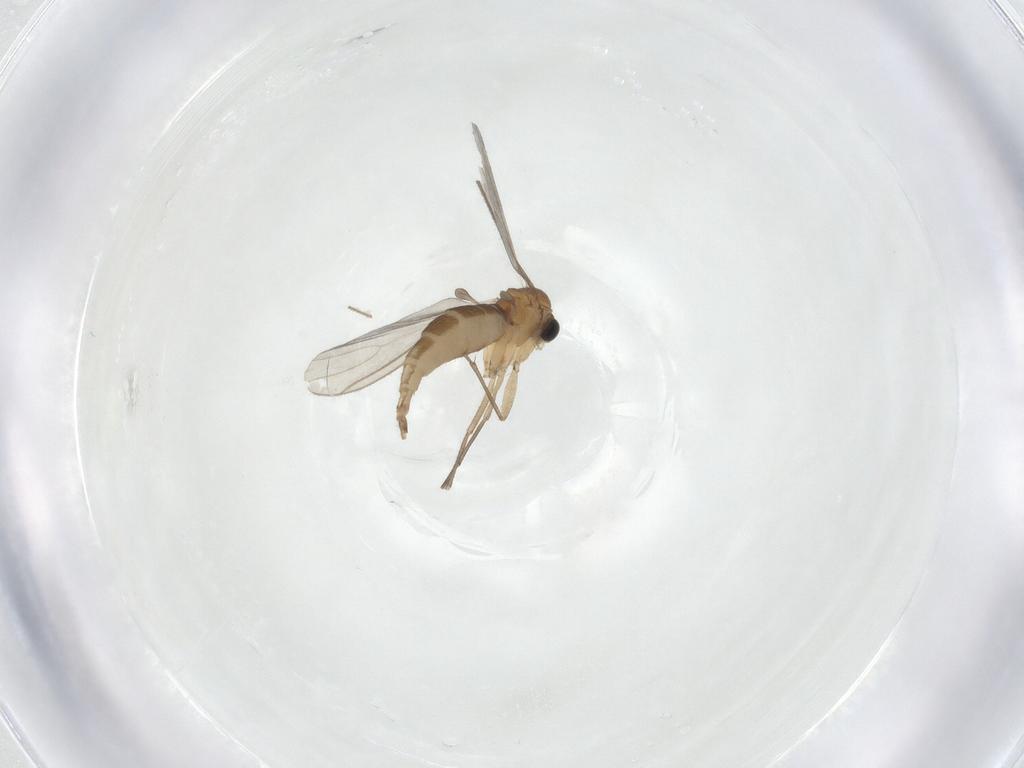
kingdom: Animalia
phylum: Arthropoda
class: Insecta
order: Diptera
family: Sciaridae
